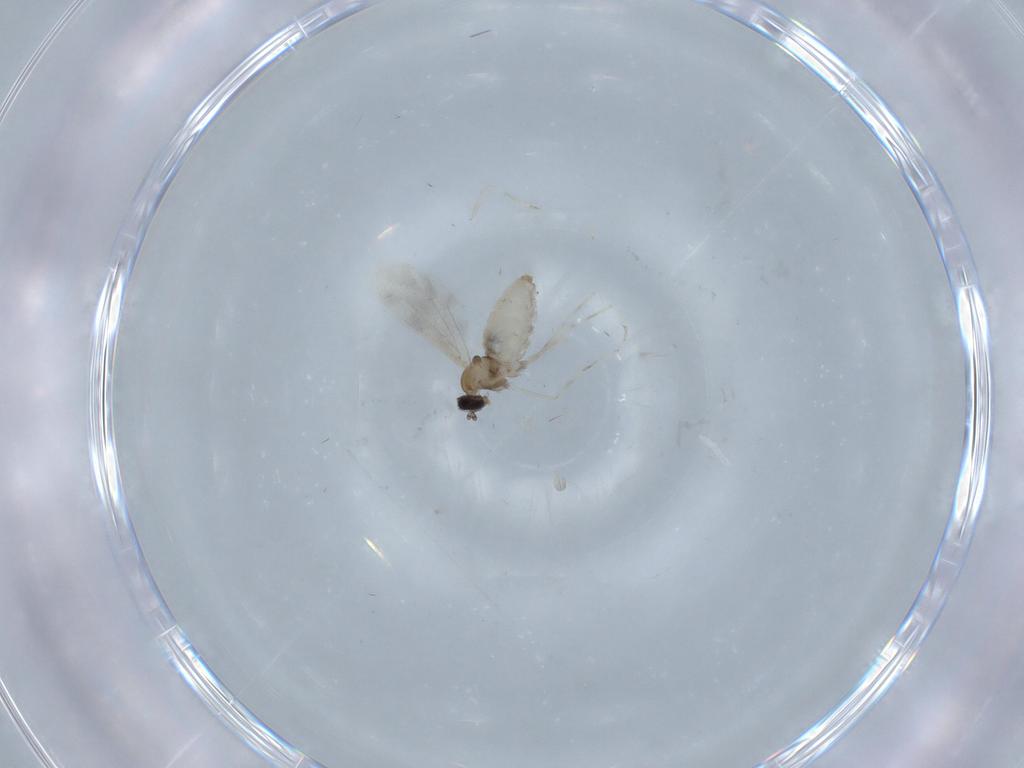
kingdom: Animalia
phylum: Arthropoda
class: Insecta
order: Diptera
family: Cecidomyiidae
